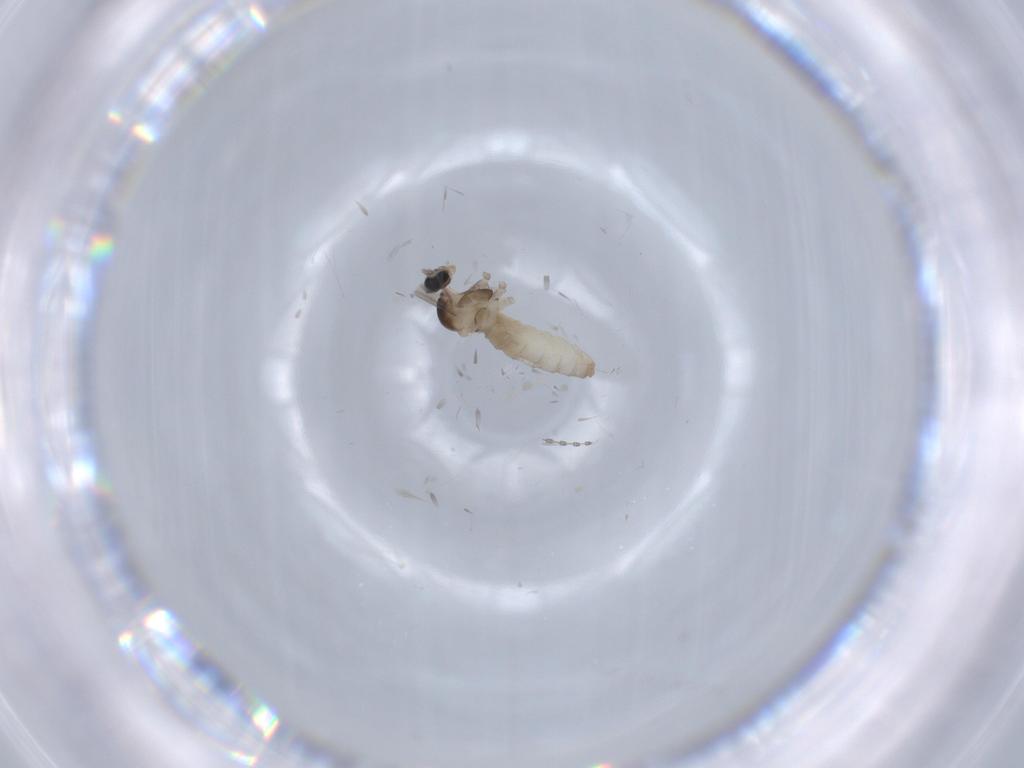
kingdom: Animalia
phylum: Arthropoda
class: Insecta
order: Diptera
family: Cecidomyiidae
